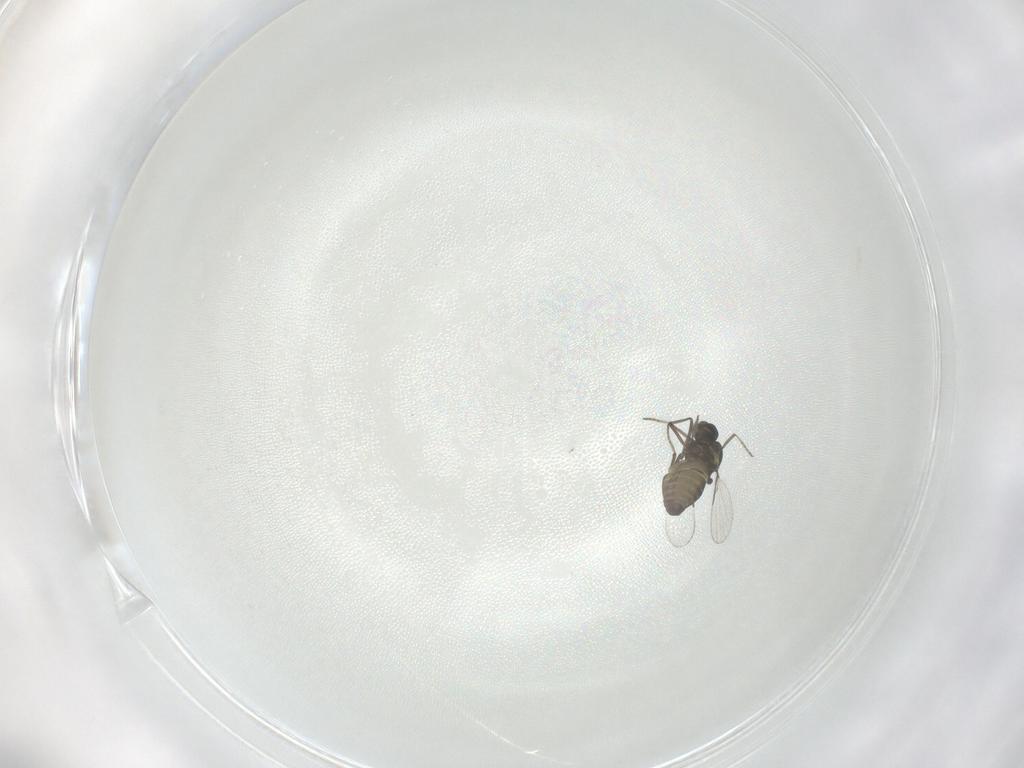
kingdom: Animalia
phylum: Arthropoda
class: Insecta
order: Diptera
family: Ceratopogonidae
